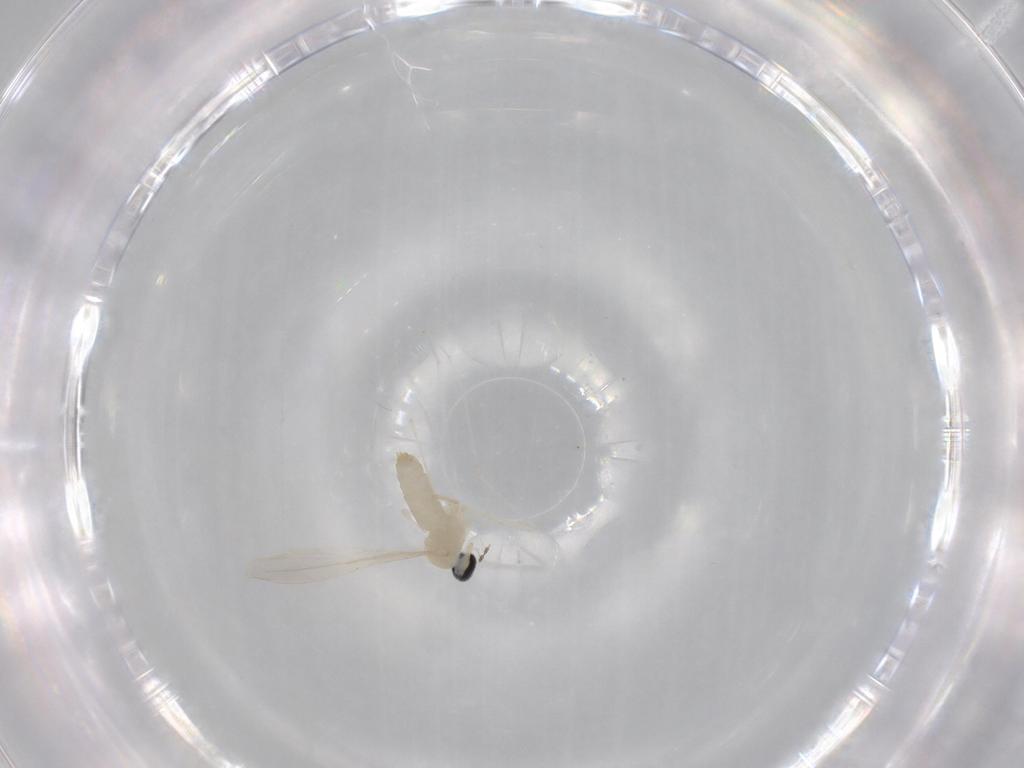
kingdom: Animalia
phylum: Arthropoda
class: Insecta
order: Diptera
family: Cecidomyiidae
